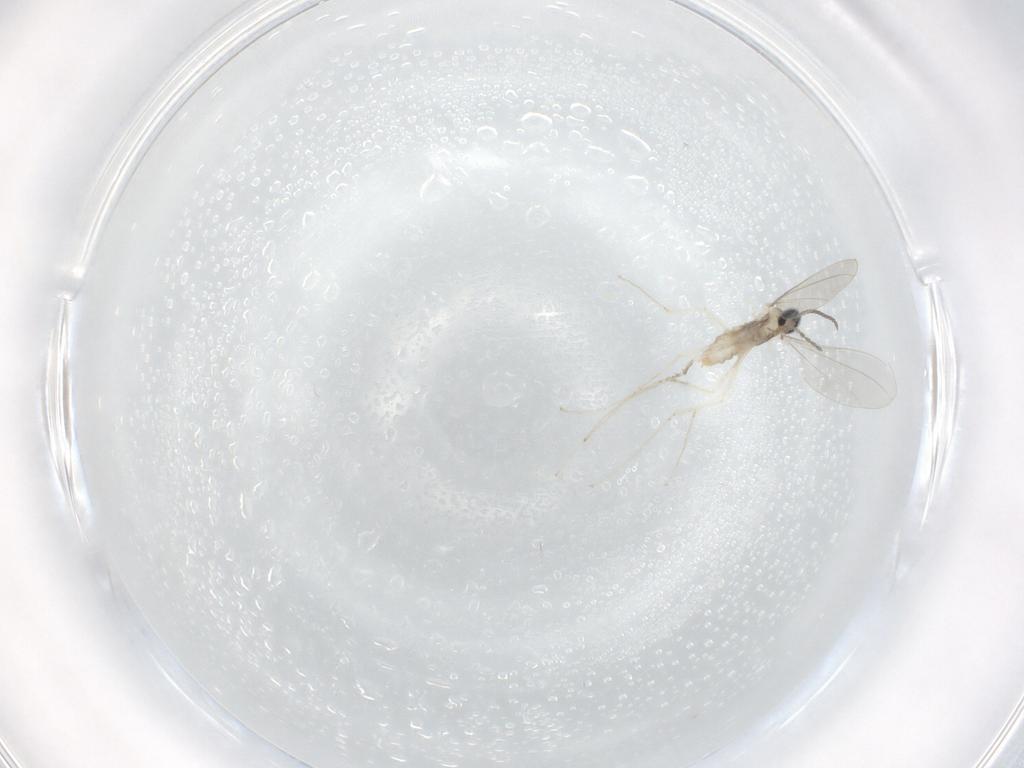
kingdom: Animalia
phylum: Arthropoda
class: Insecta
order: Diptera
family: Cecidomyiidae
